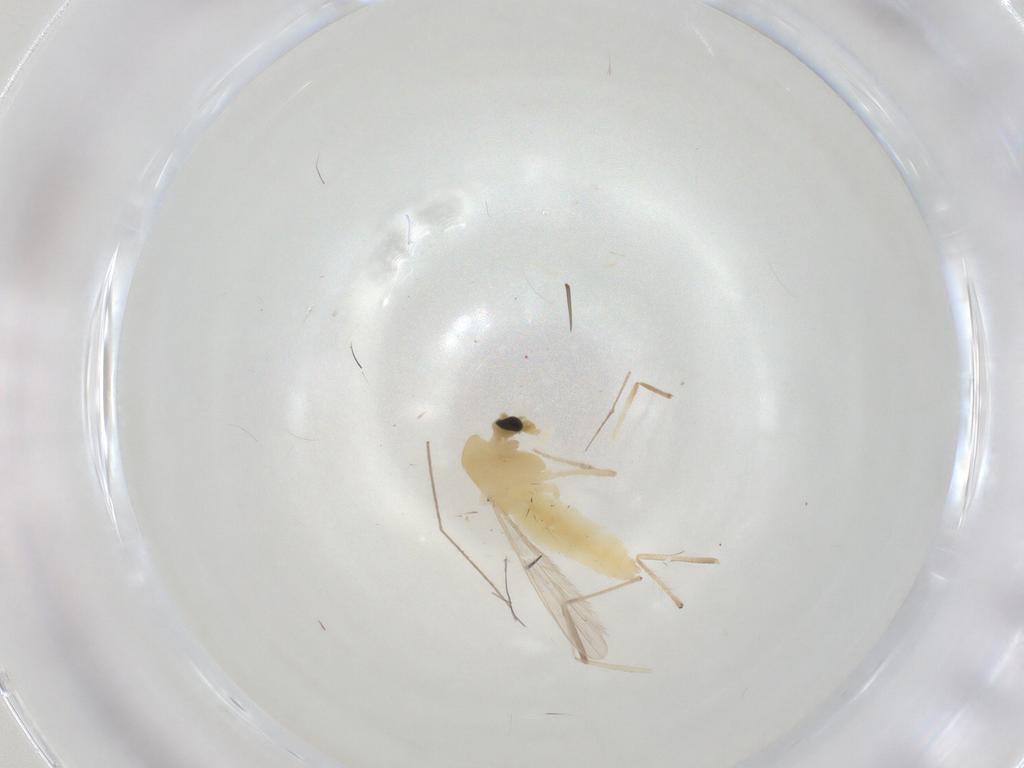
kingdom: Animalia
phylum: Arthropoda
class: Insecta
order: Diptera
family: Chironomidae
